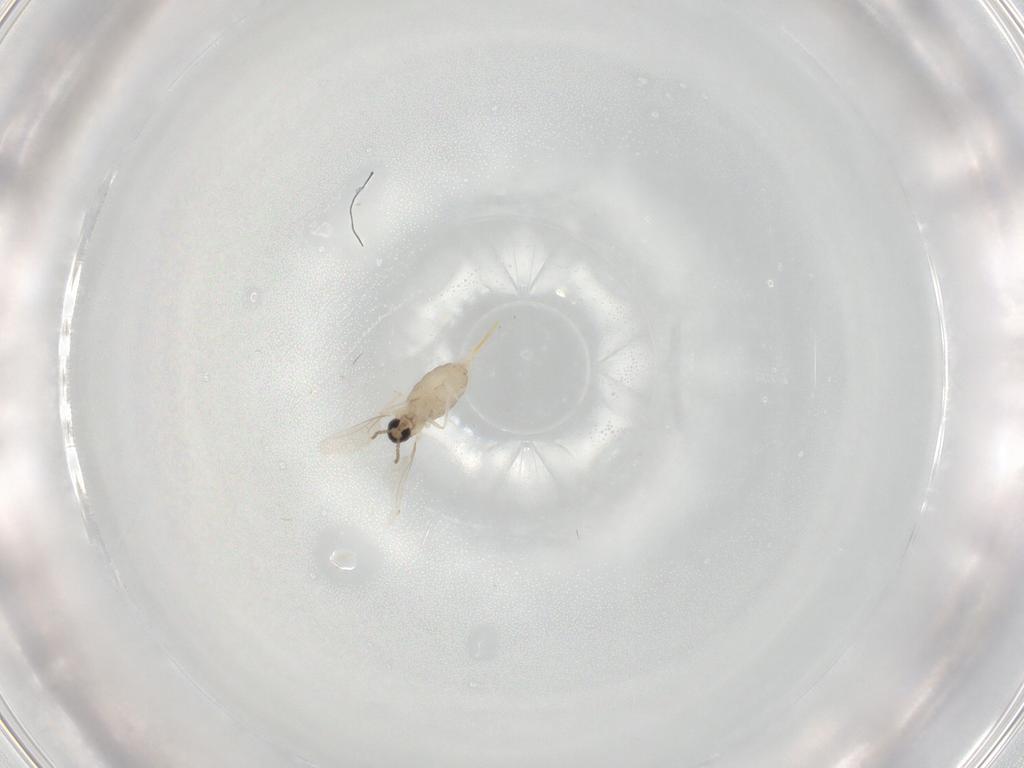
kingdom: Animalia
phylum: Arthropoda
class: Insecta
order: Diptera
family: Cecidomyiidae
